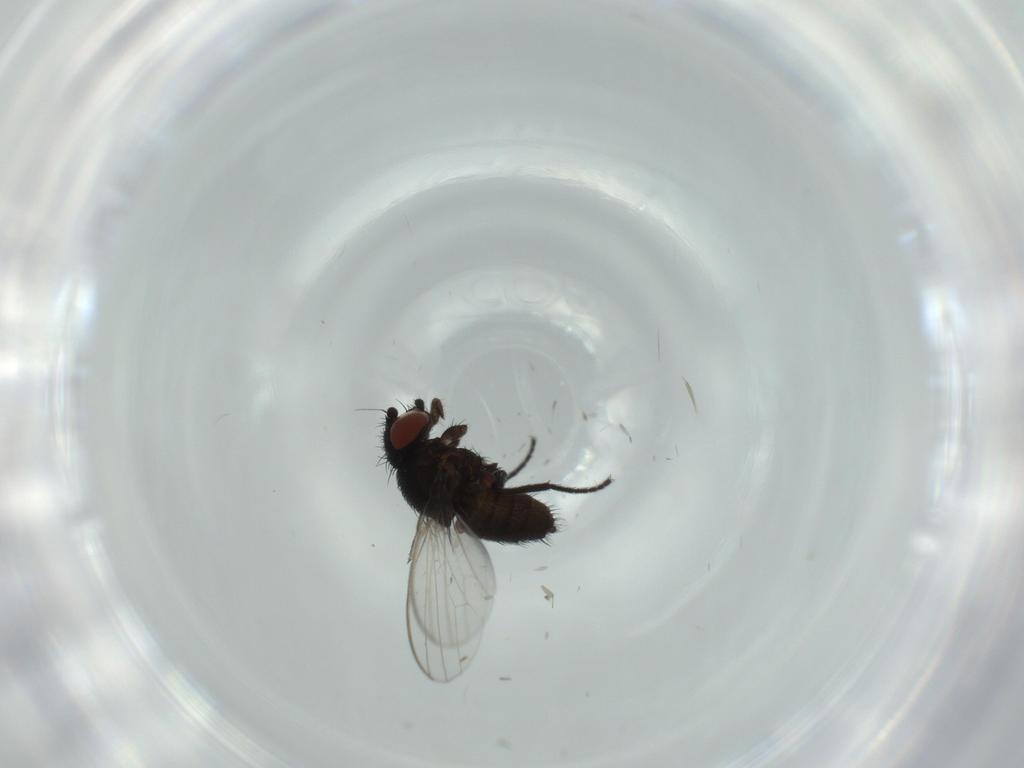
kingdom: Animalia
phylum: Arthropoda
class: Insecta
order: Diptera
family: Milichiidae
